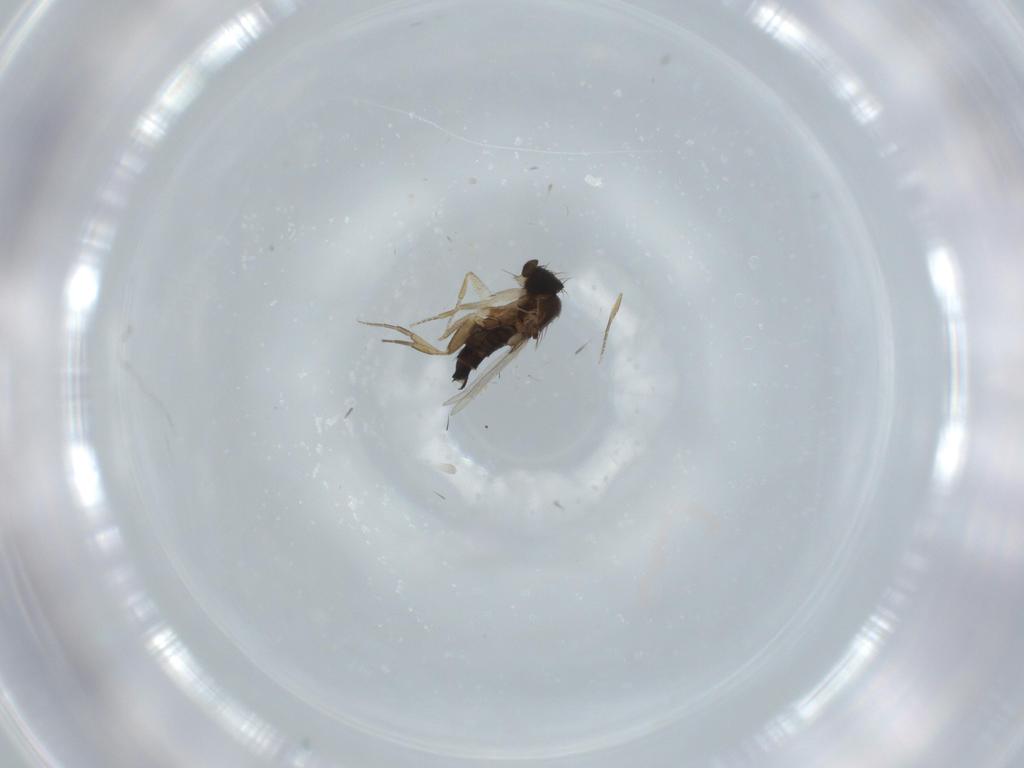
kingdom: Animalia
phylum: Arthropoda
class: Insecta
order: Diptera
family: Phoridae
